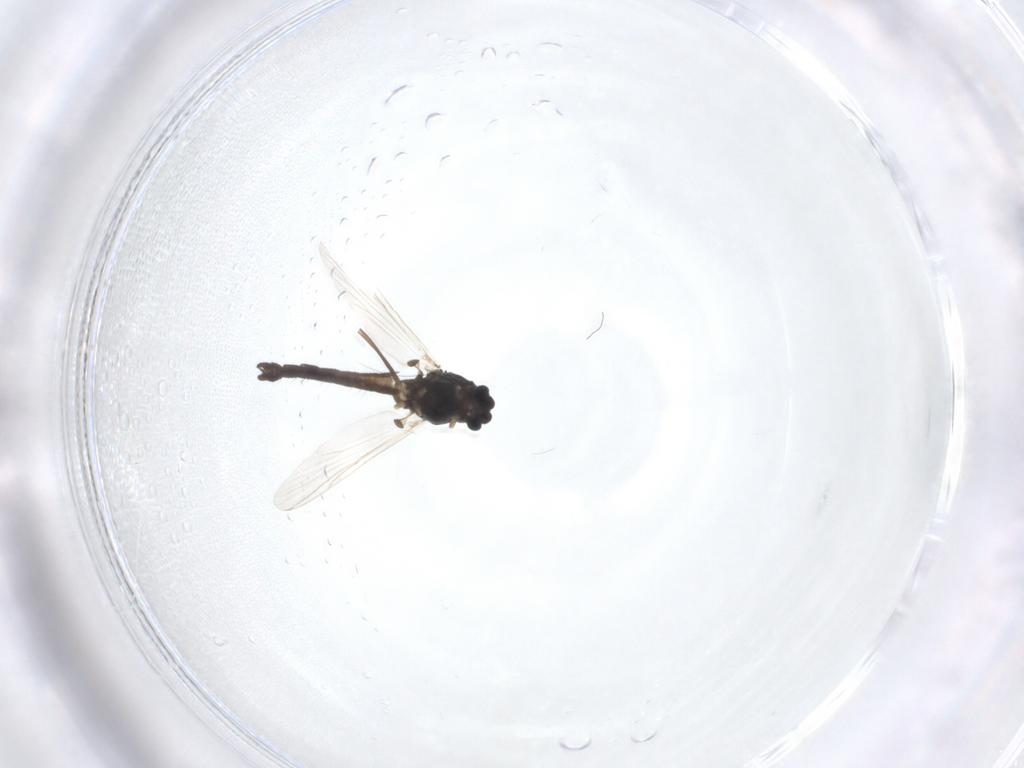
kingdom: Animalia
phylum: Arthropoda
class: Insecta
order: Diptera
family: Chironomidae
